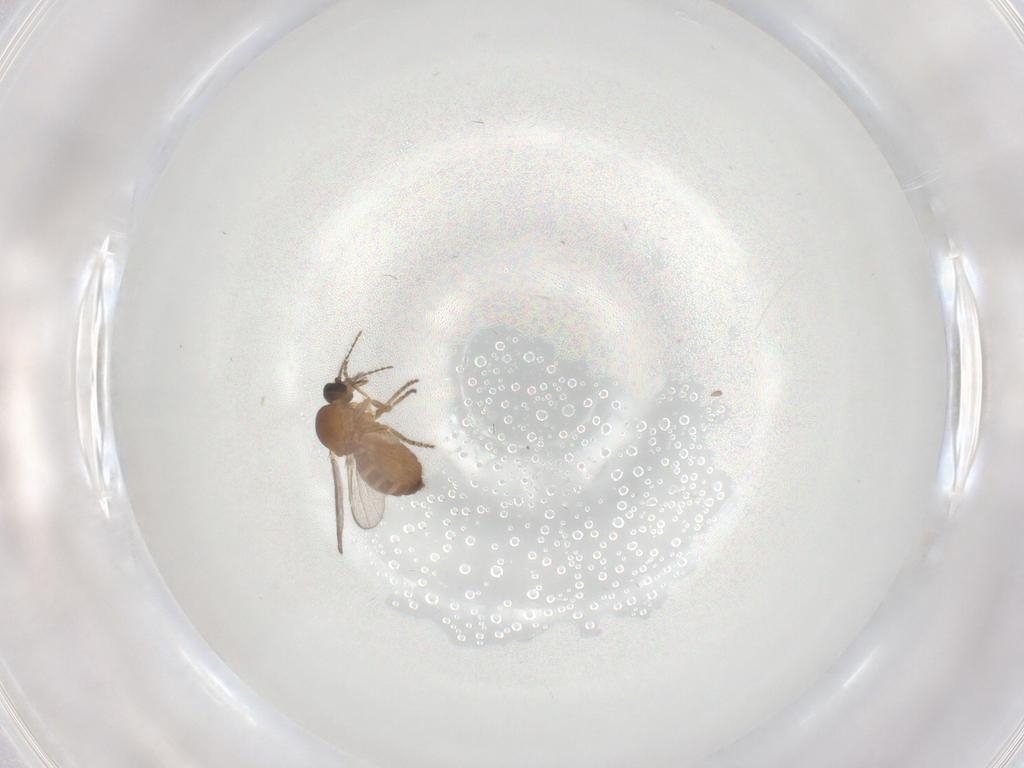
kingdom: Animalia
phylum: Arthropoda
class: Insecta
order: Diptera
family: Ceratopogonidae
